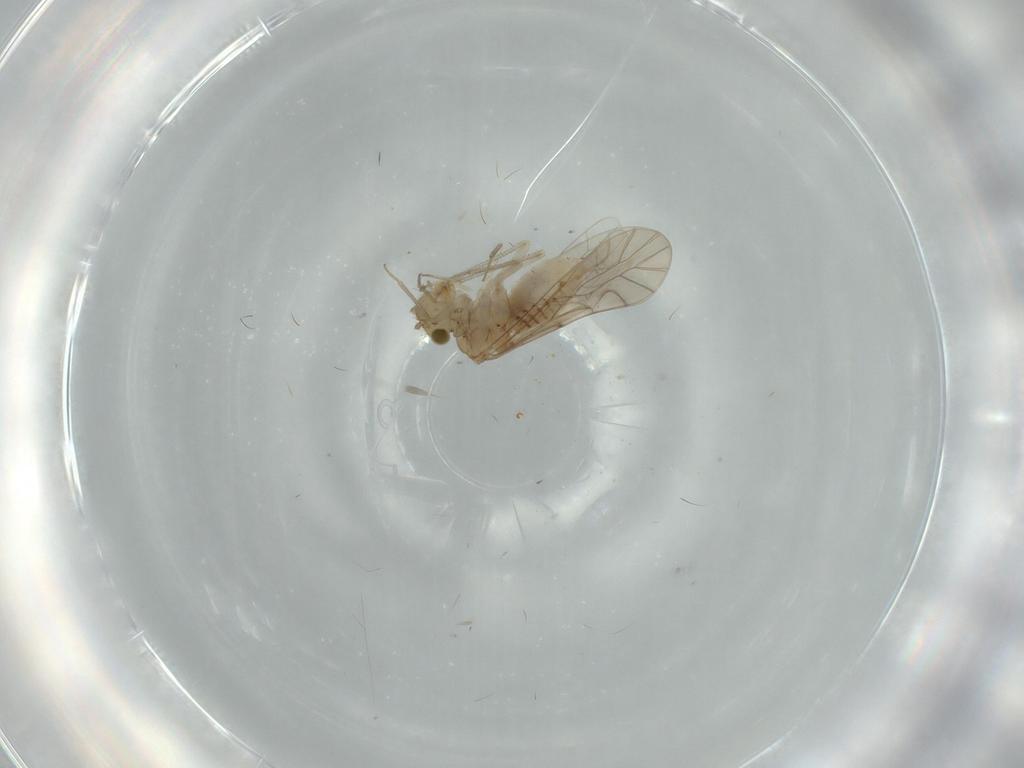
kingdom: Animalia
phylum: Arthropoda
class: Insecta
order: Psocodea
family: Lachesillidae
